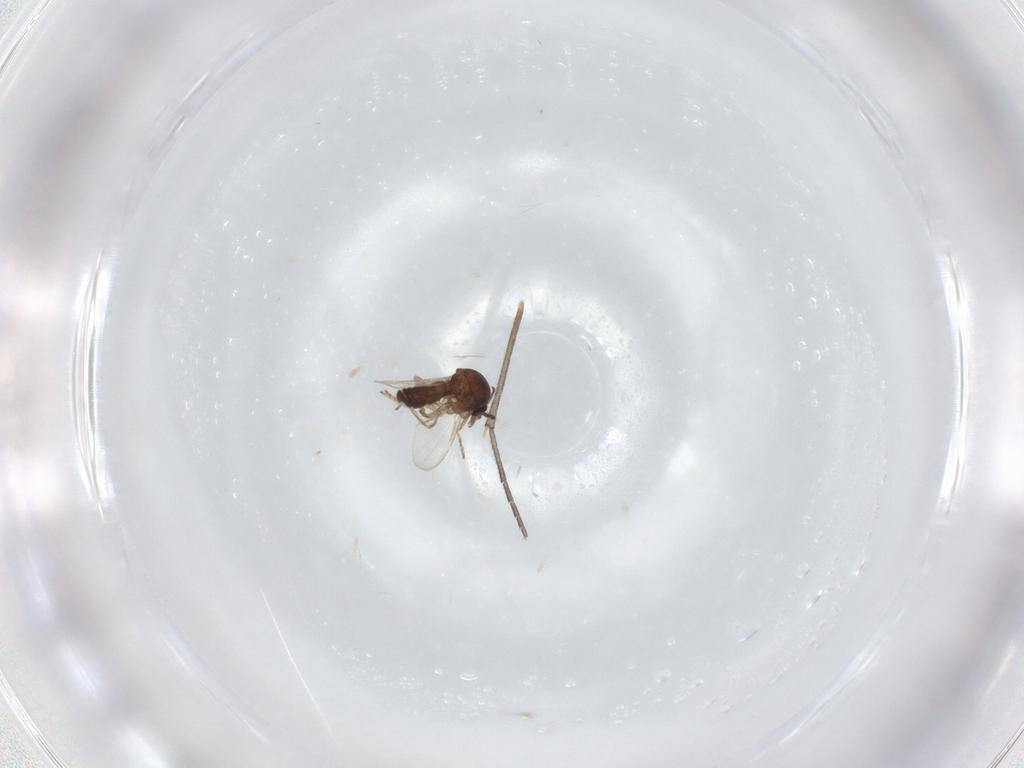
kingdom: Animalia
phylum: Arthropoda
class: Insecta
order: Diptera
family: Ceratopogonidae
